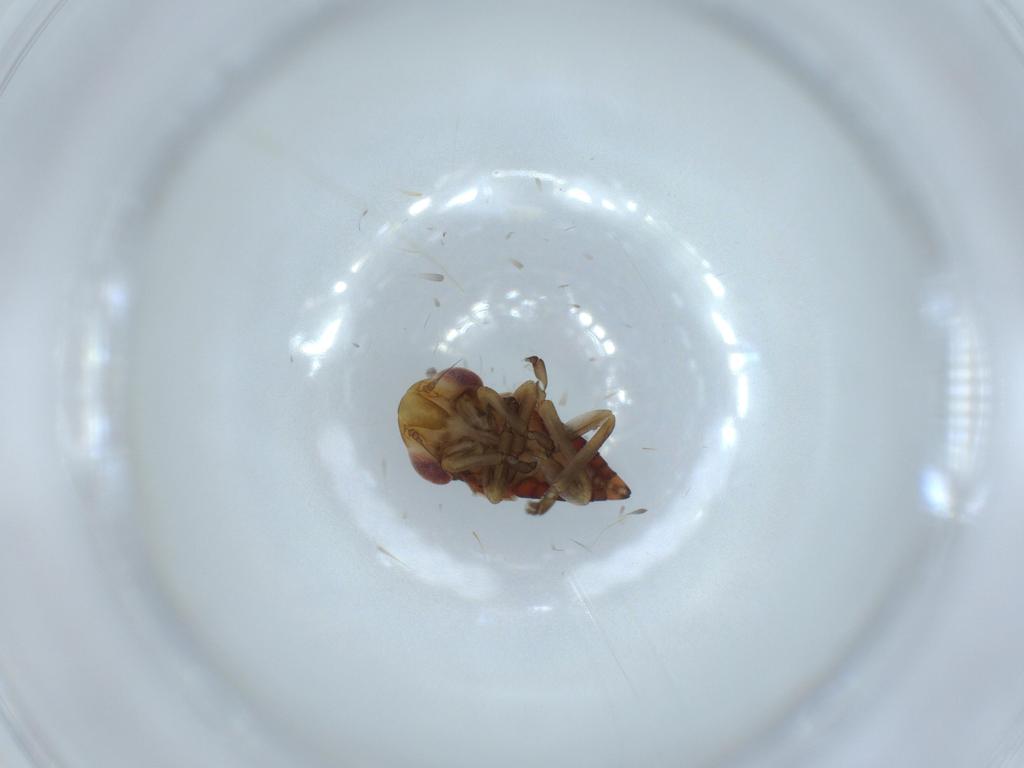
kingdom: Animalia
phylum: Arthropoda
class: Insecta
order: Hemiptera
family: Cicadellidae
